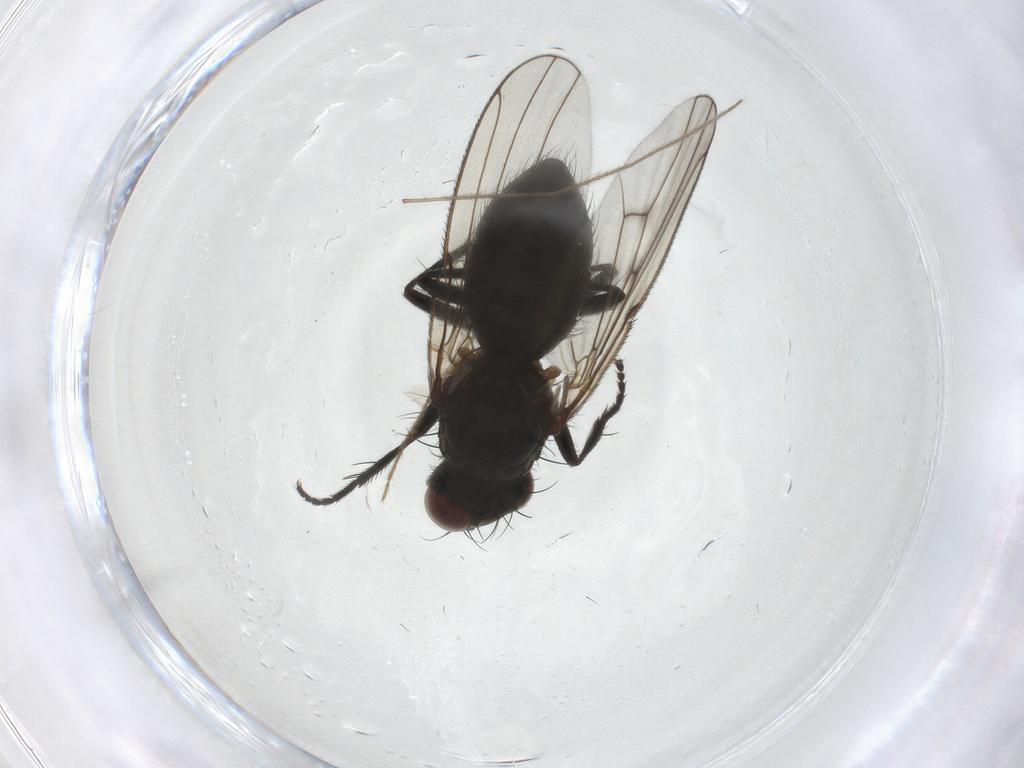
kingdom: Animalia
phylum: Arthropoda
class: Insecta
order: Diptera
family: Muscidae
